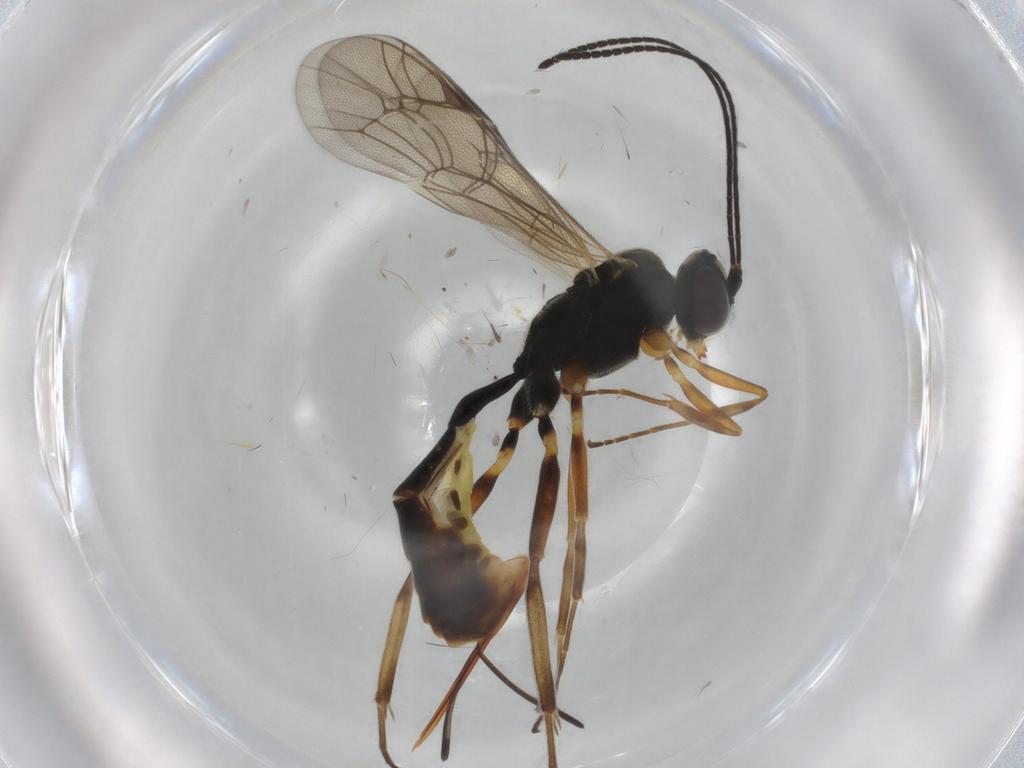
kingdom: Animalia
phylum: Arthropoda
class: Insecta
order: Hymenoptera
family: Ichneumonidae
